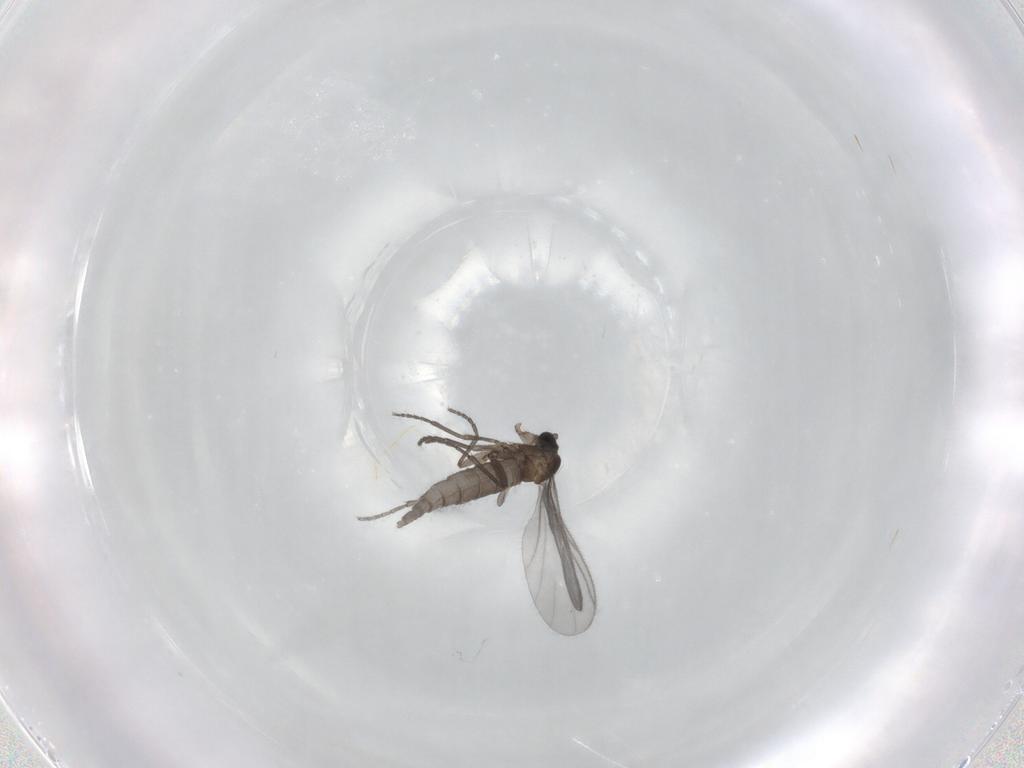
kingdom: Animalia
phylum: Arthropoda
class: Insecta
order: Diptera
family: Sciaridae
